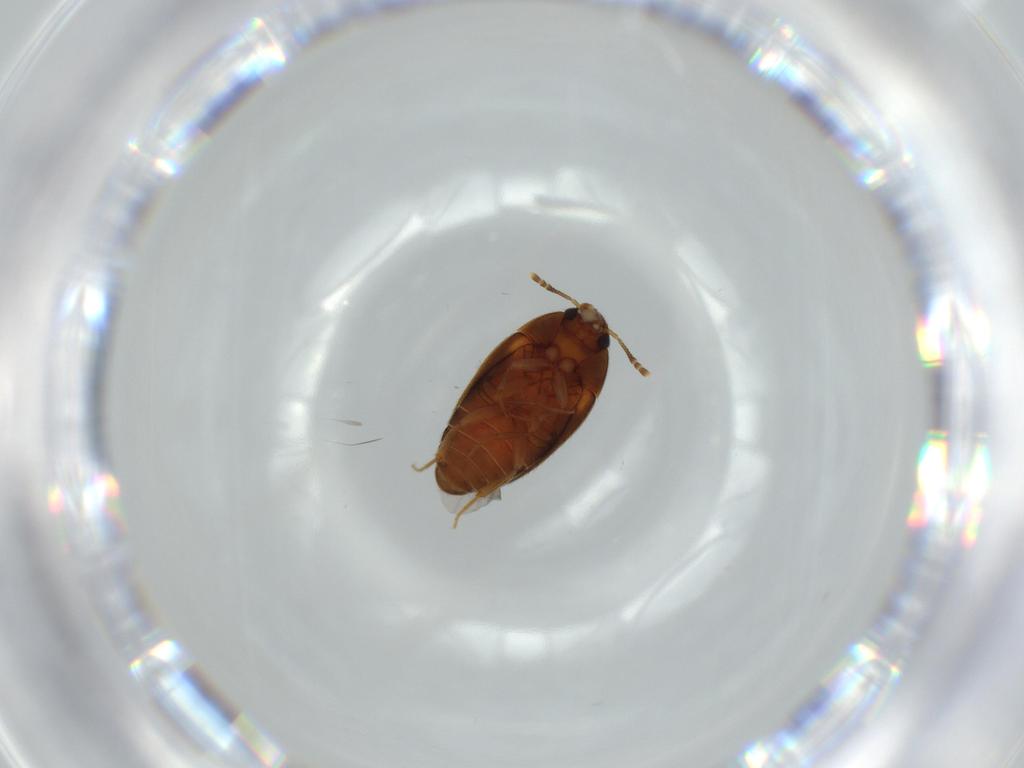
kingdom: Animalia
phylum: Arthropoda
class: Insecta
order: Coleoptera
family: Mycetophagidae
